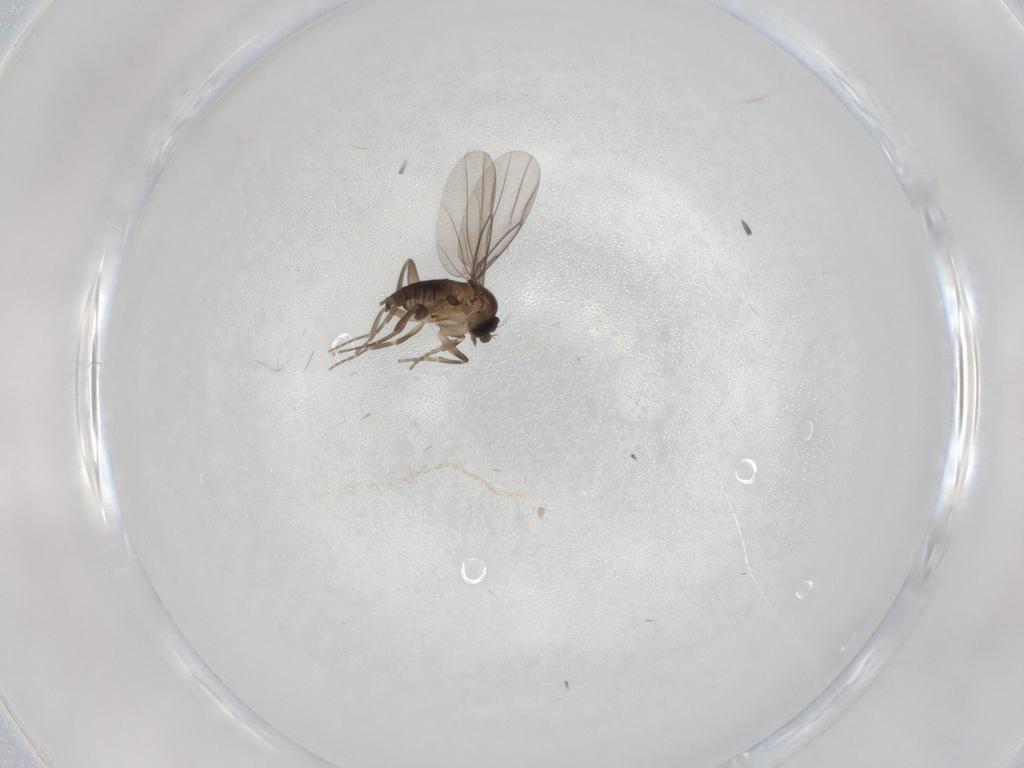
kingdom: Animalia
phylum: Arthropoda
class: Insecta
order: Diptera
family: Phoridae
